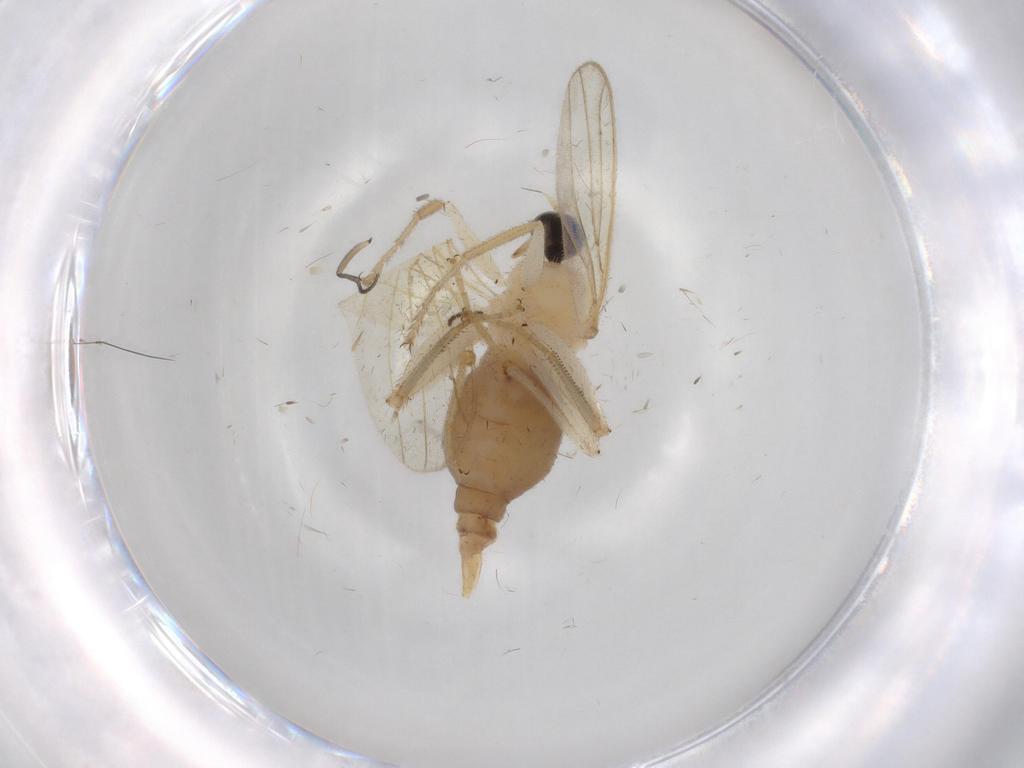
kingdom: Animalia
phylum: Arthropoda
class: Insecta
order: Diptera
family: Hybotidae
